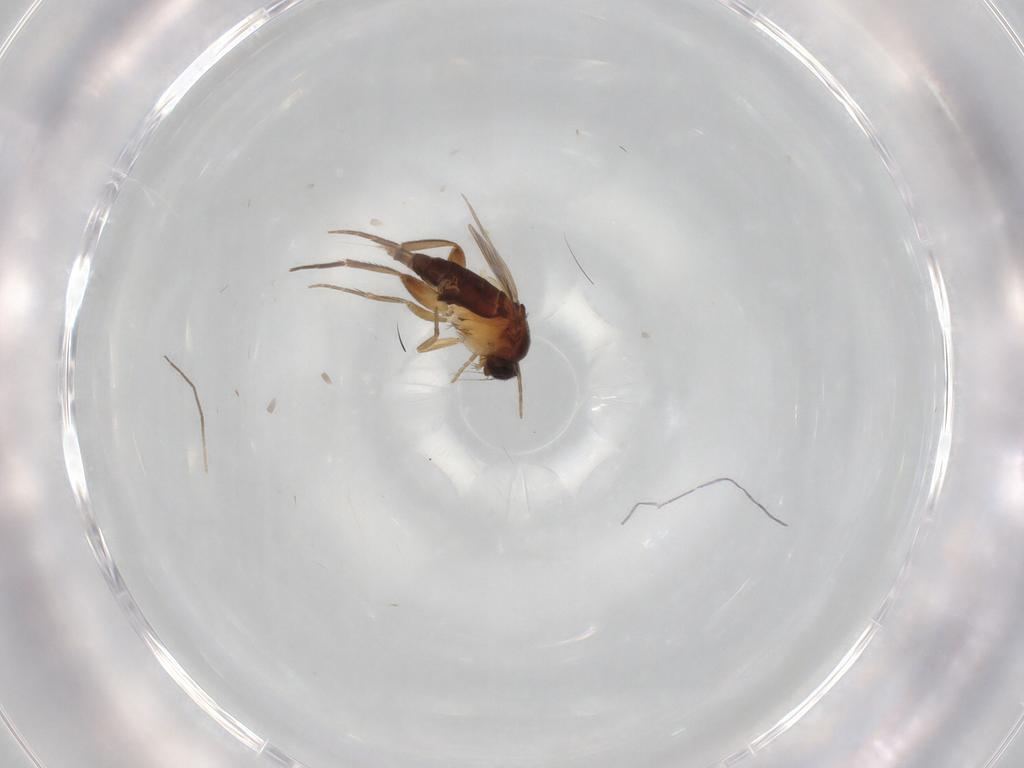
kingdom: Animalia
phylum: Arthropoda
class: Insecta
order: Diptera
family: Chironomidae
